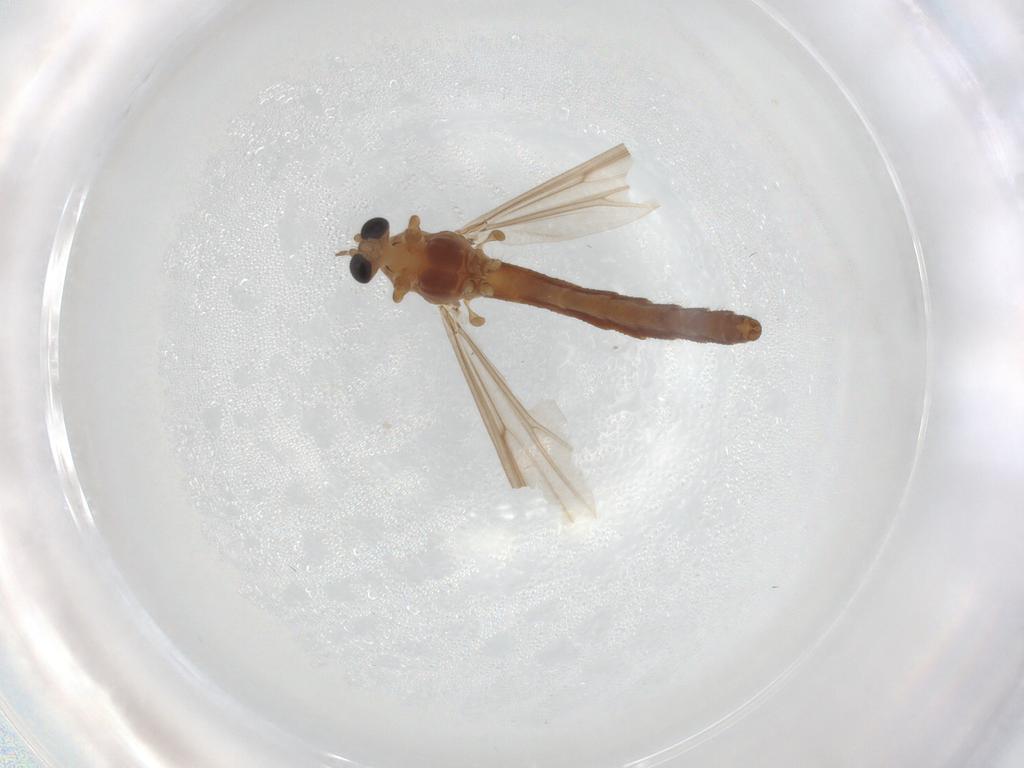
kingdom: Animalia
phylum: Arthropoda
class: Insecta
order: Diptera
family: Chironomidae
